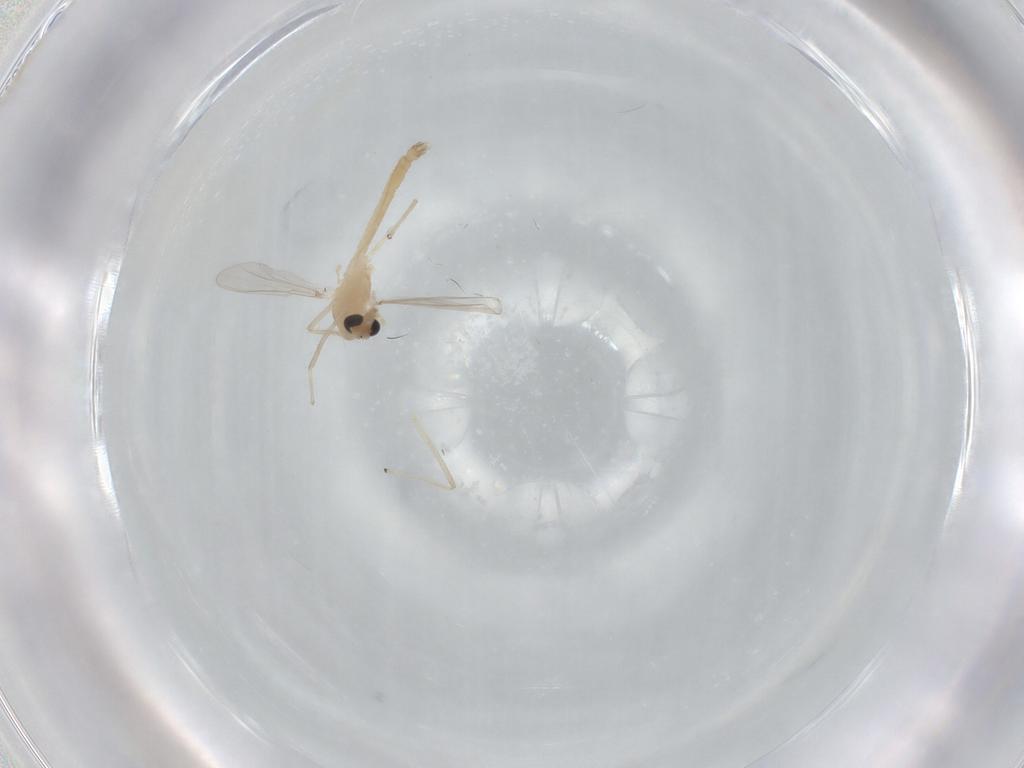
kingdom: Animalia
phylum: Arthropoda
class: Insecta
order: Diptera
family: Chironomidae
